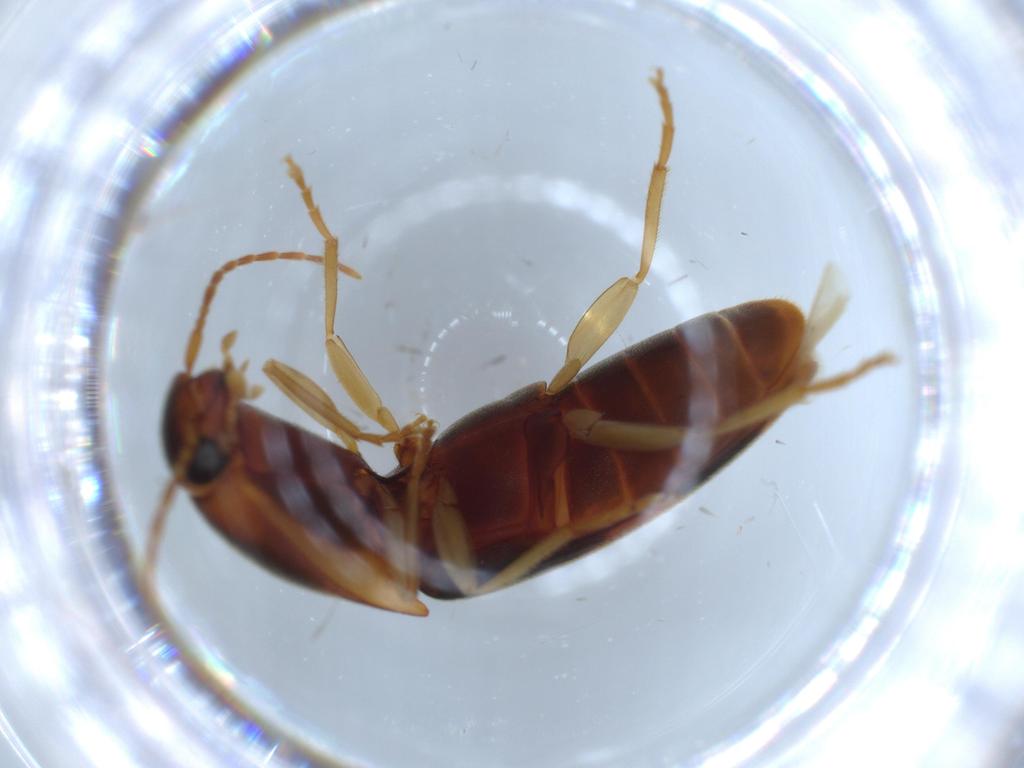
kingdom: Animalia
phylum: Arthropoda
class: Insecta
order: Coleoptera
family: Elateridae
